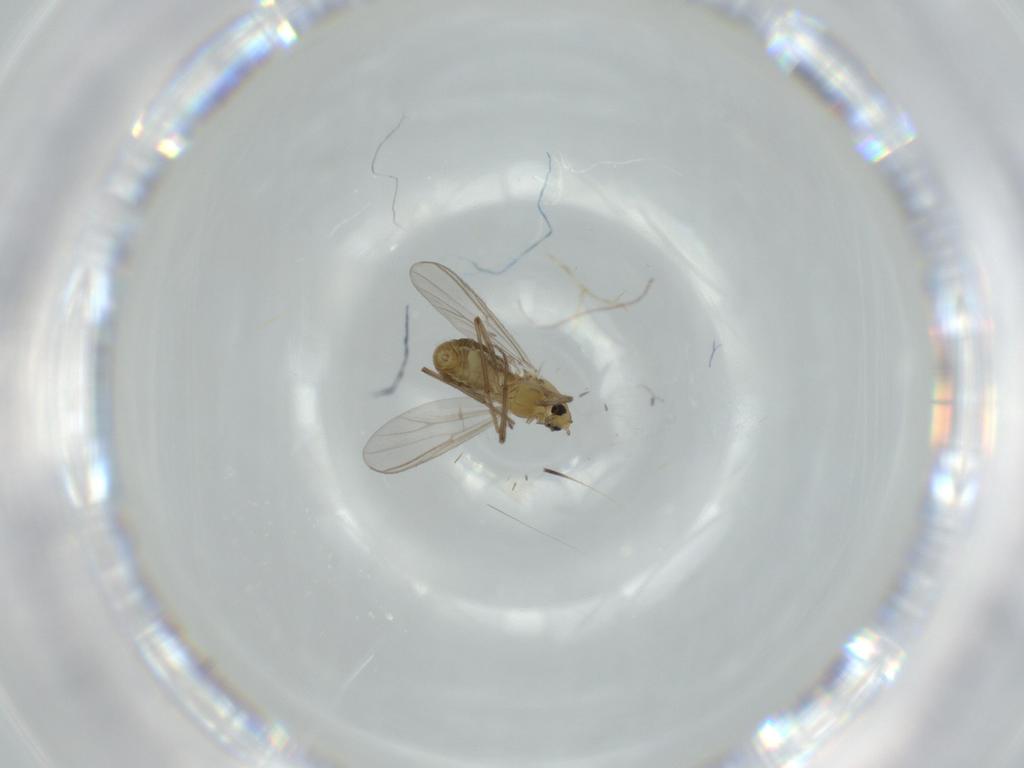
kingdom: Animalia
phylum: Arthropoda
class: Insecta
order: Diptera
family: Chironomidae
